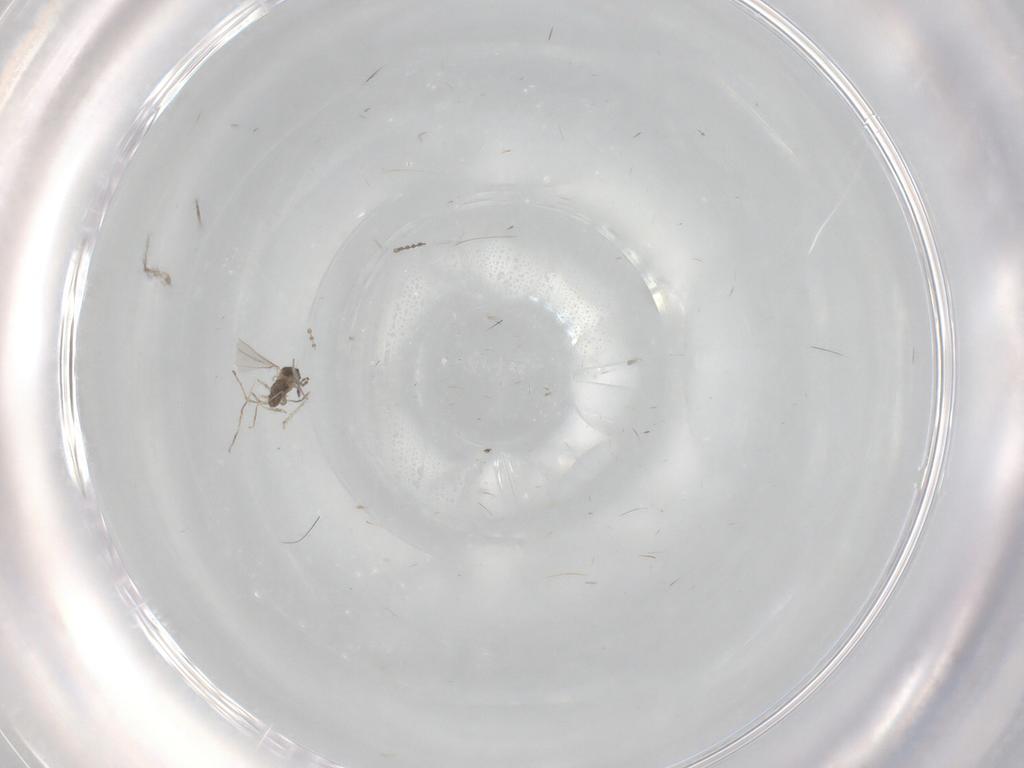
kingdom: Animalia
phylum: Arthropoda
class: Insecta
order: Diptera
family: Cecidomyiidae
